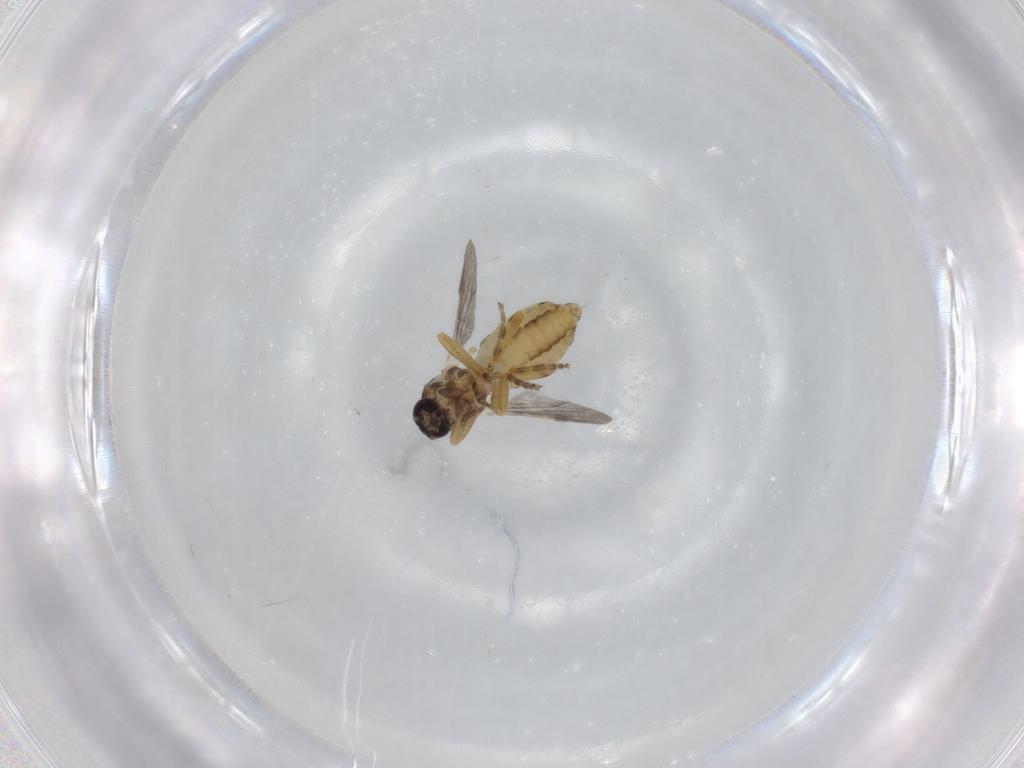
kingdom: Animalia
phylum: Arthropoda
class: Insecta
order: Diptera
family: Ceratopogonidae
